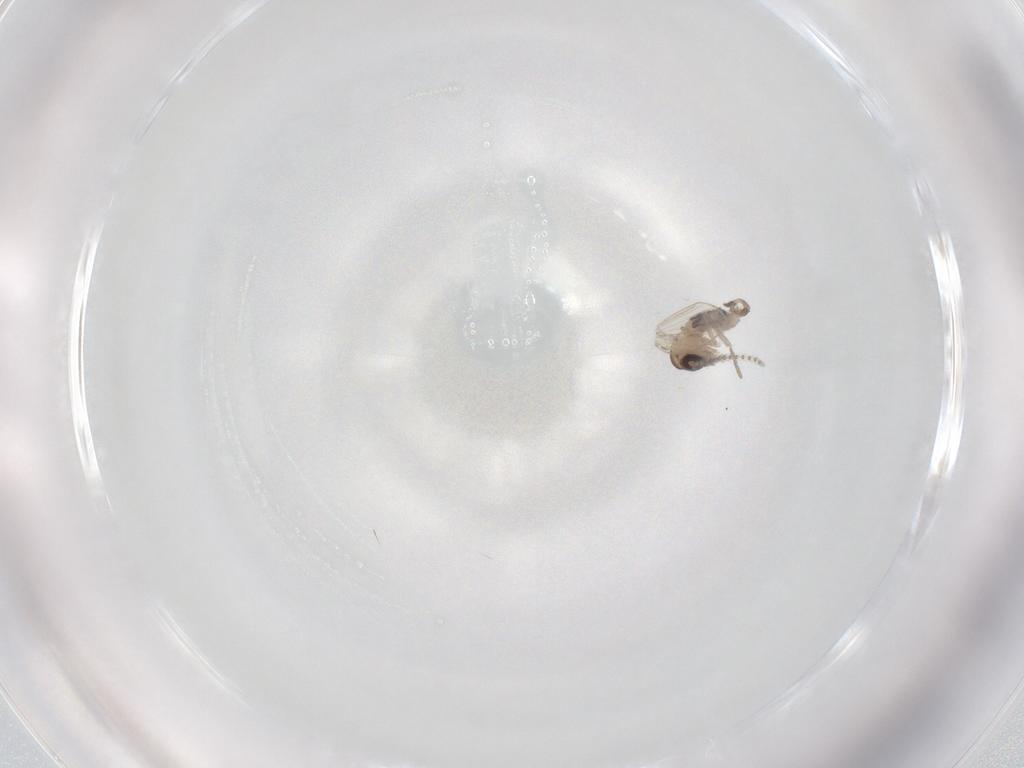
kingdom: Animalia
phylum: Arthropoda
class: Insecta
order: Diptera
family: Psychodidae
